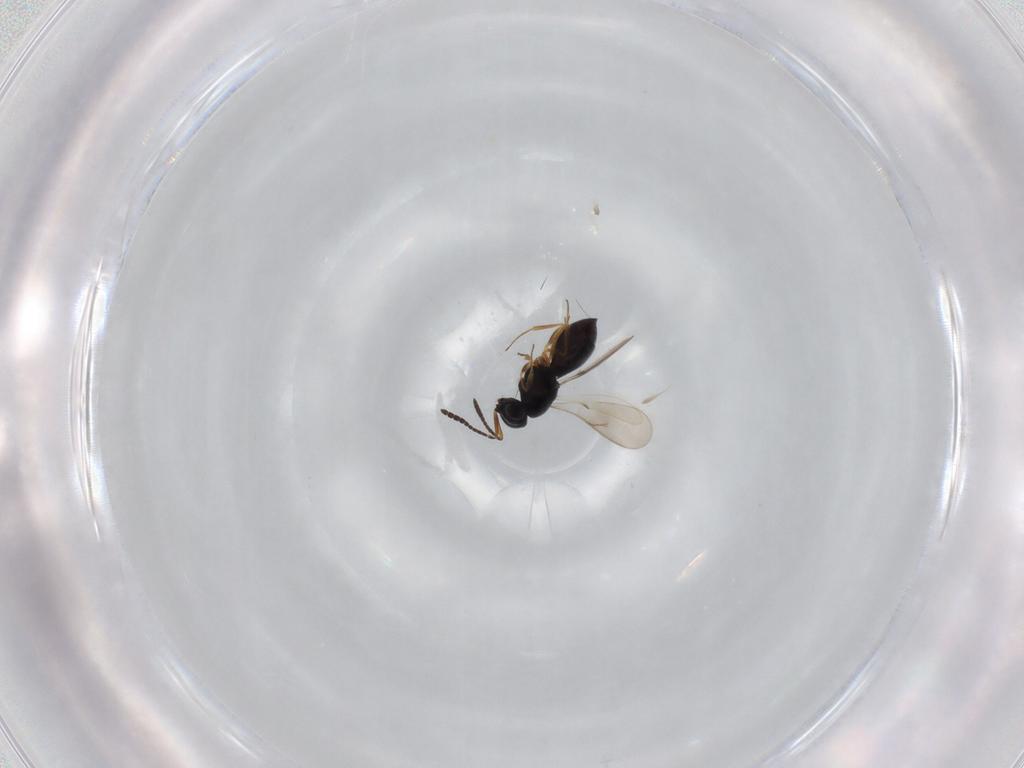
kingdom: Animalia
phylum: Arthropoda
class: Insecta
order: Hymenoptera
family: Scelionidae
